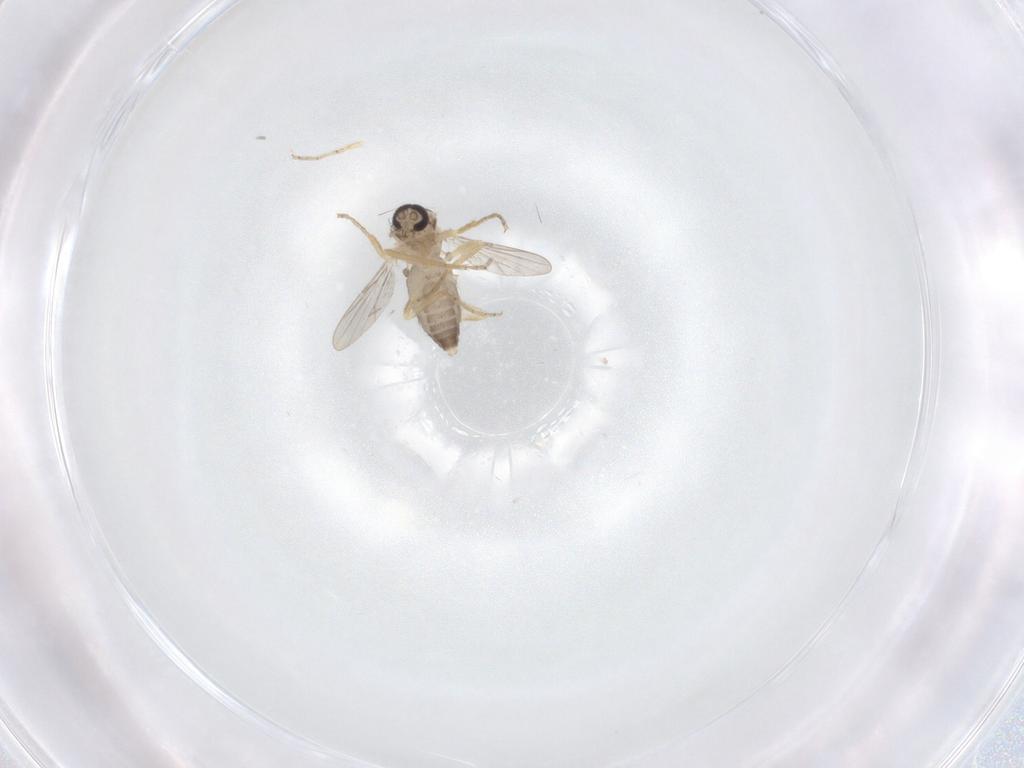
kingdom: Animalia
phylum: Arthropoda
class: Insecta
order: Diptera
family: Ceratopogonidae
